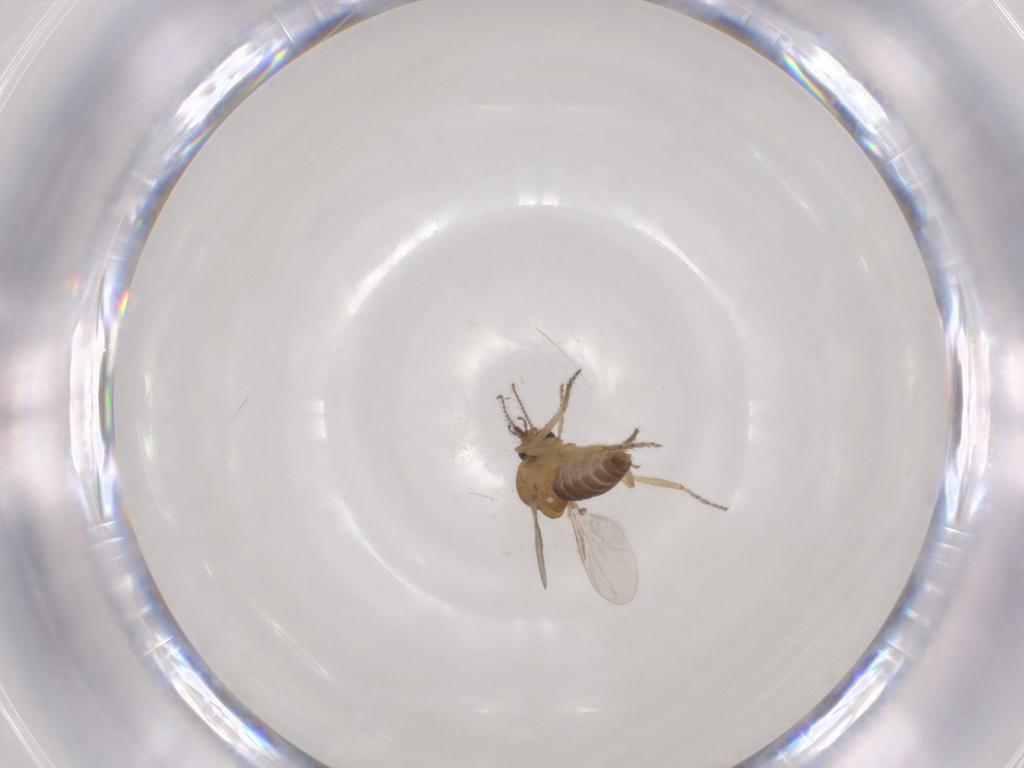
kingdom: Animalia
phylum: Arthropoda
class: Insecta
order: Diptera
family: Ceratopogonidae
